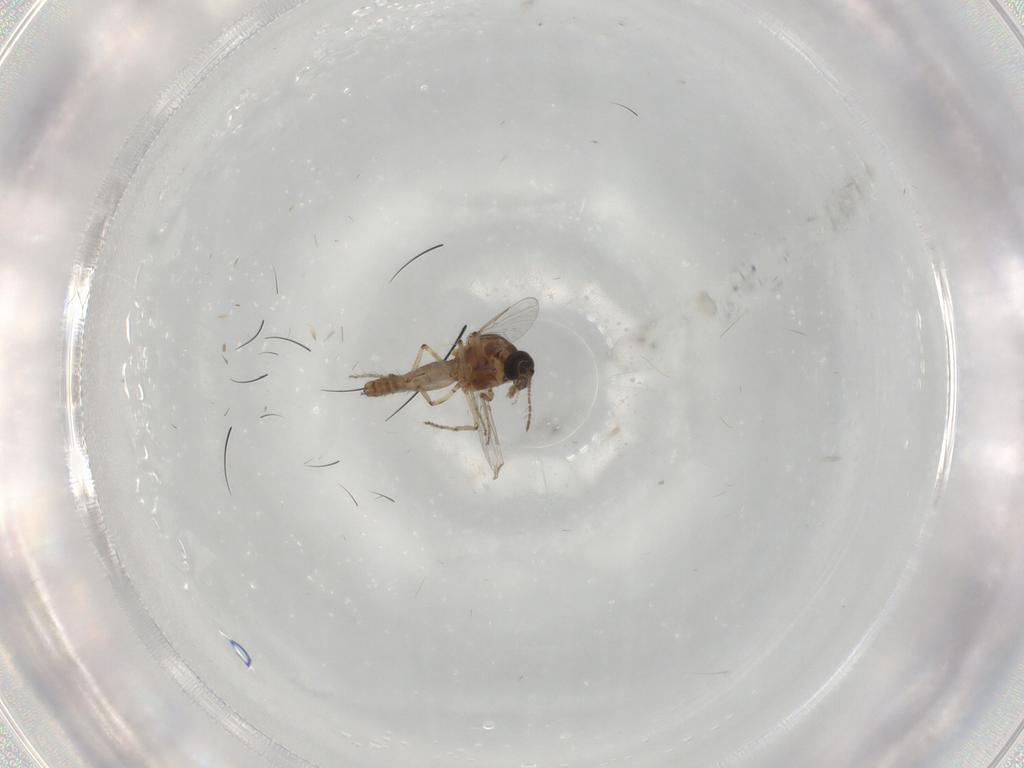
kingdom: Animalia
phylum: Arthropoda
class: Insecta
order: Diptera
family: Ceratopogonidae
